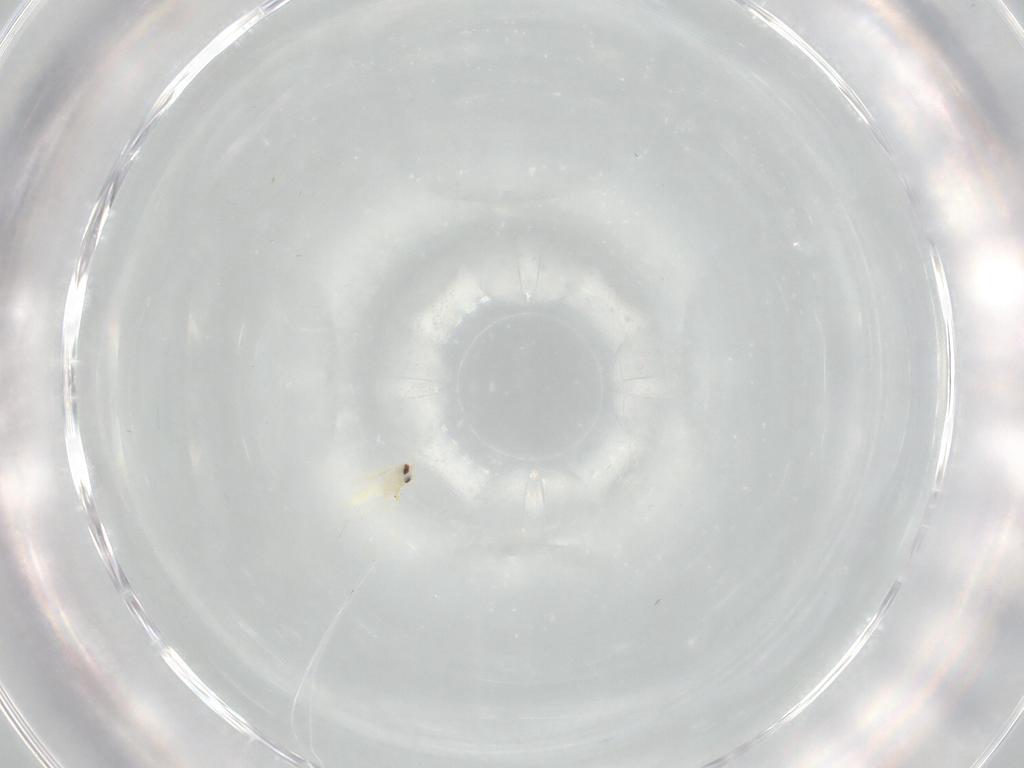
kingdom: Animalia
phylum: Arthropoda
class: Insecta
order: Hemiptera
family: Aleyrodidae
